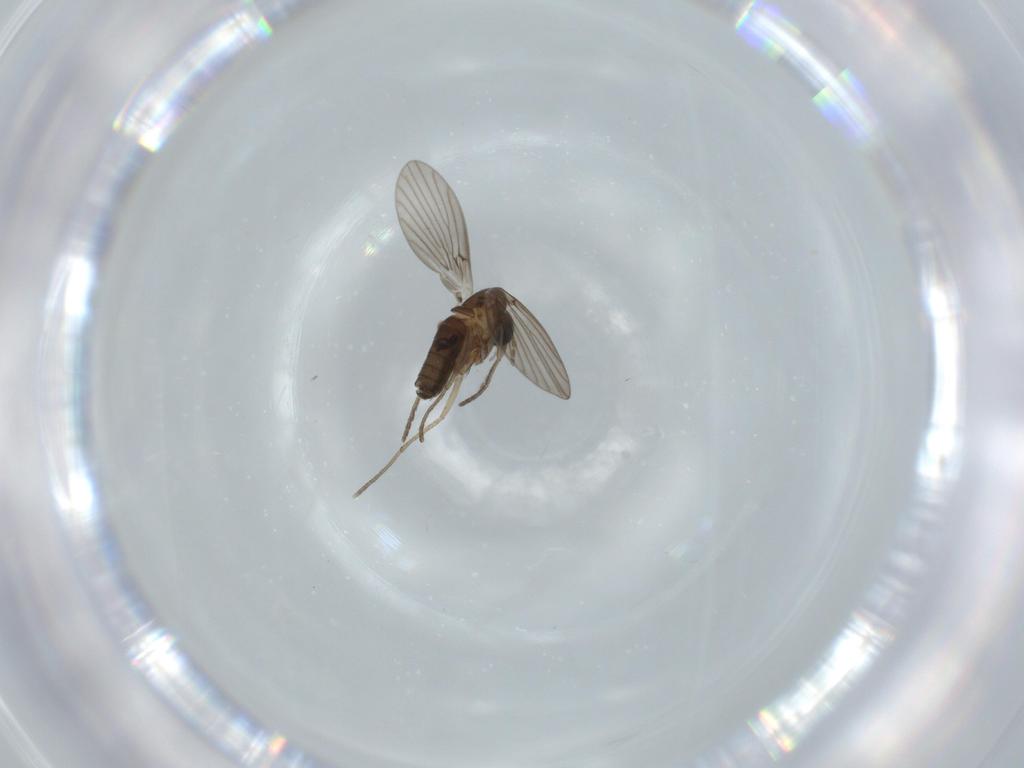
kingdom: Animalia
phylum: Arthropoda
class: Insecta
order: Diptera
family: Psychodidae
